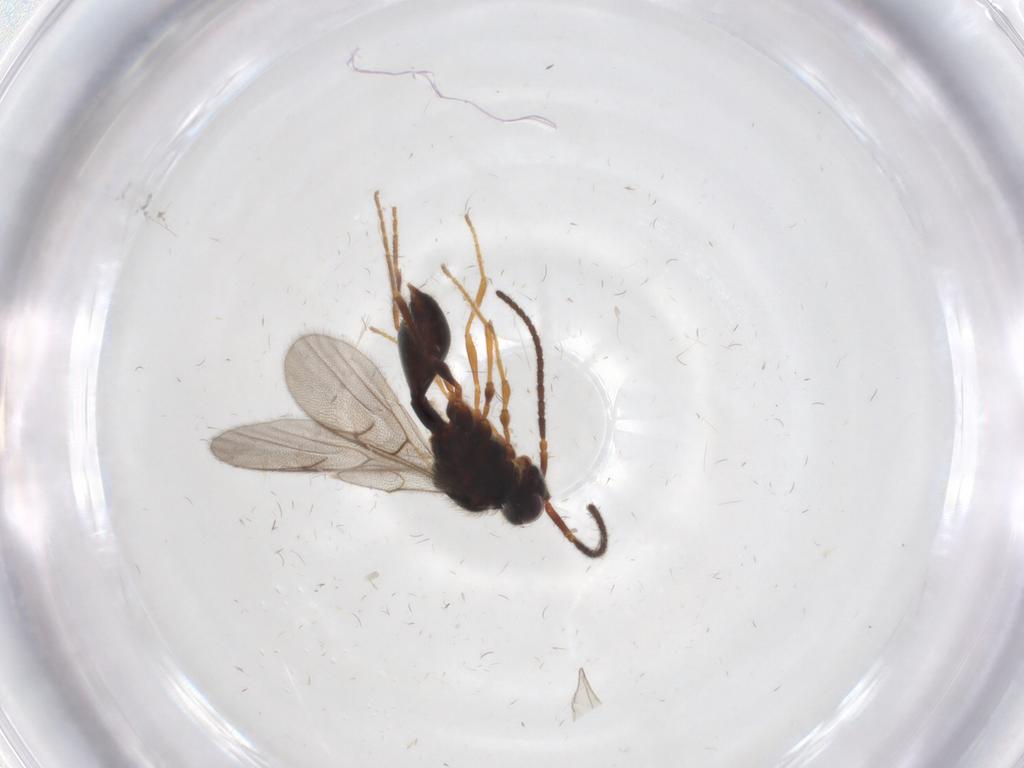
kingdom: Animalia
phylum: Arthropoda
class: Insecta
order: Hymenoptera
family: Diapriidae
